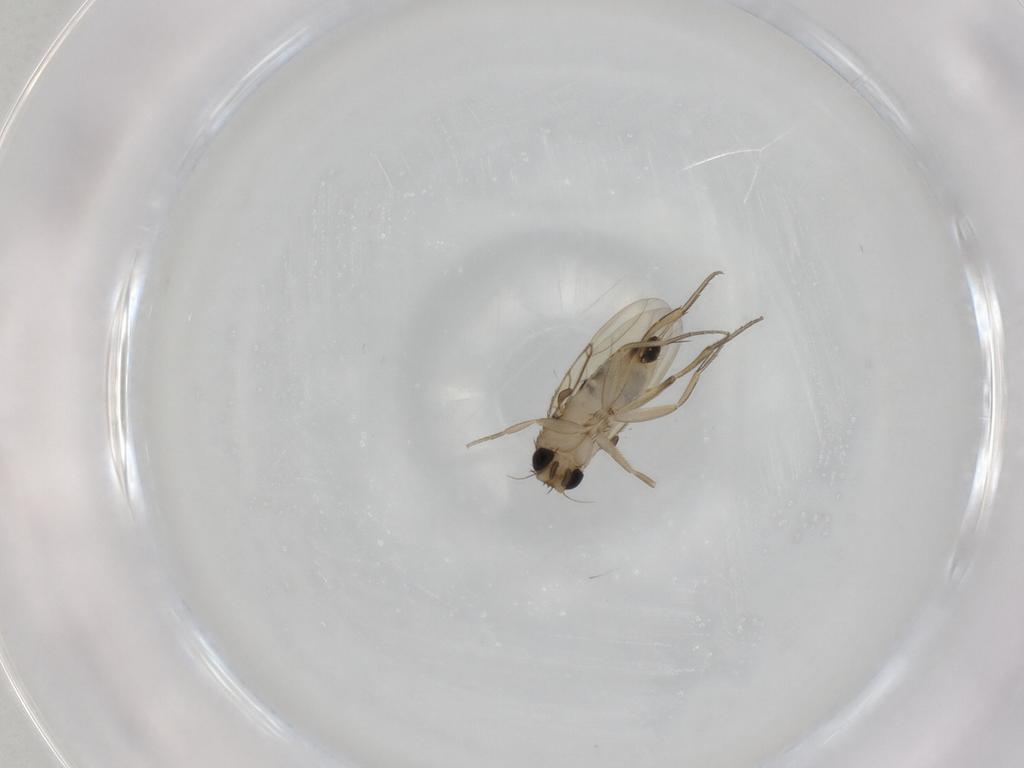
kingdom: Animalia
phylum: Arthropoda
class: Insecta
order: Diptera
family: Phoridae
